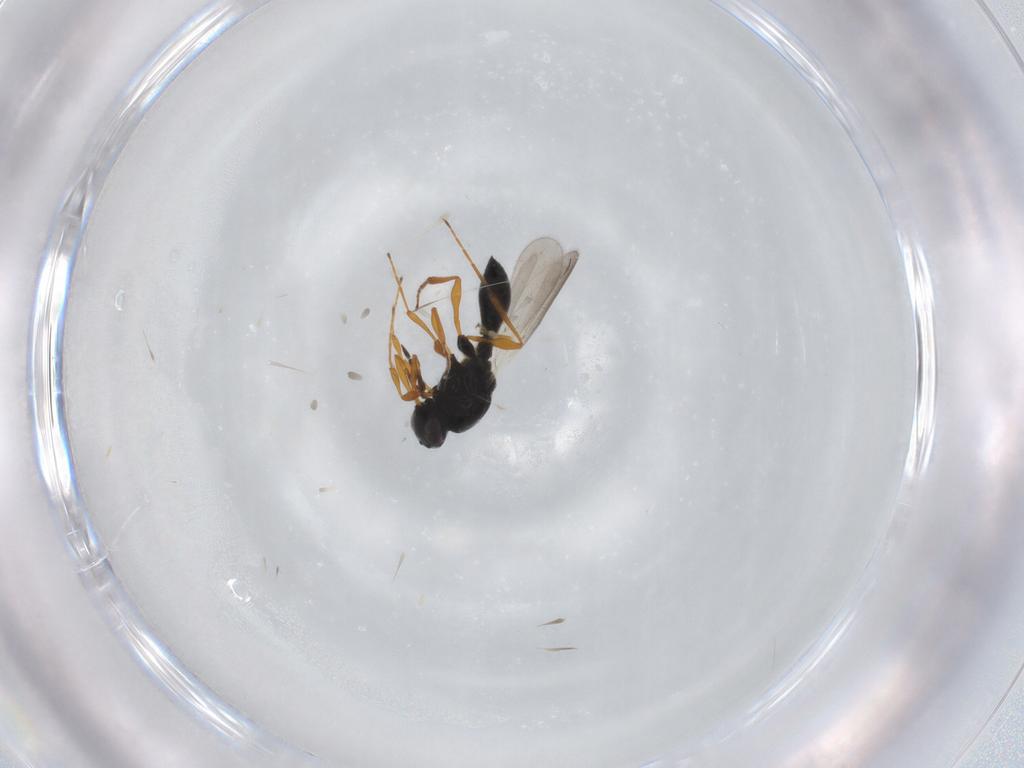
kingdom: Animalia
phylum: Arthropoda
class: Insecta
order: Hymenoptera
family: Platygastridae
